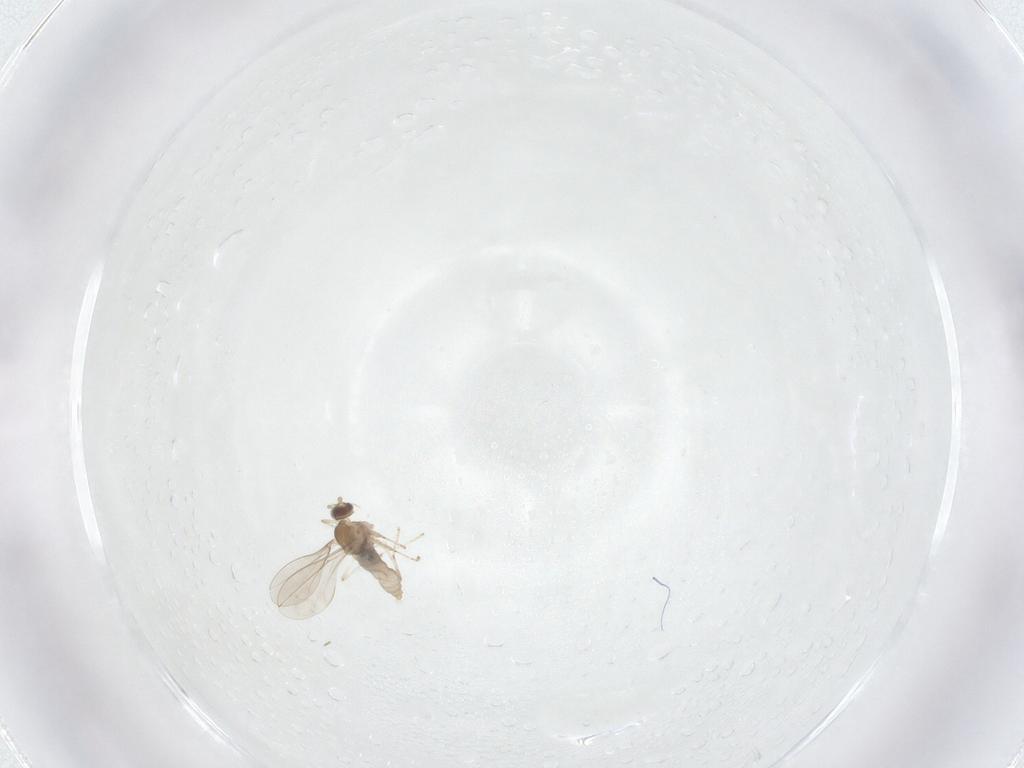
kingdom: Animalia
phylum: Arthropoda
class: Insecta
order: Diptera
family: Cecidomyiidae
